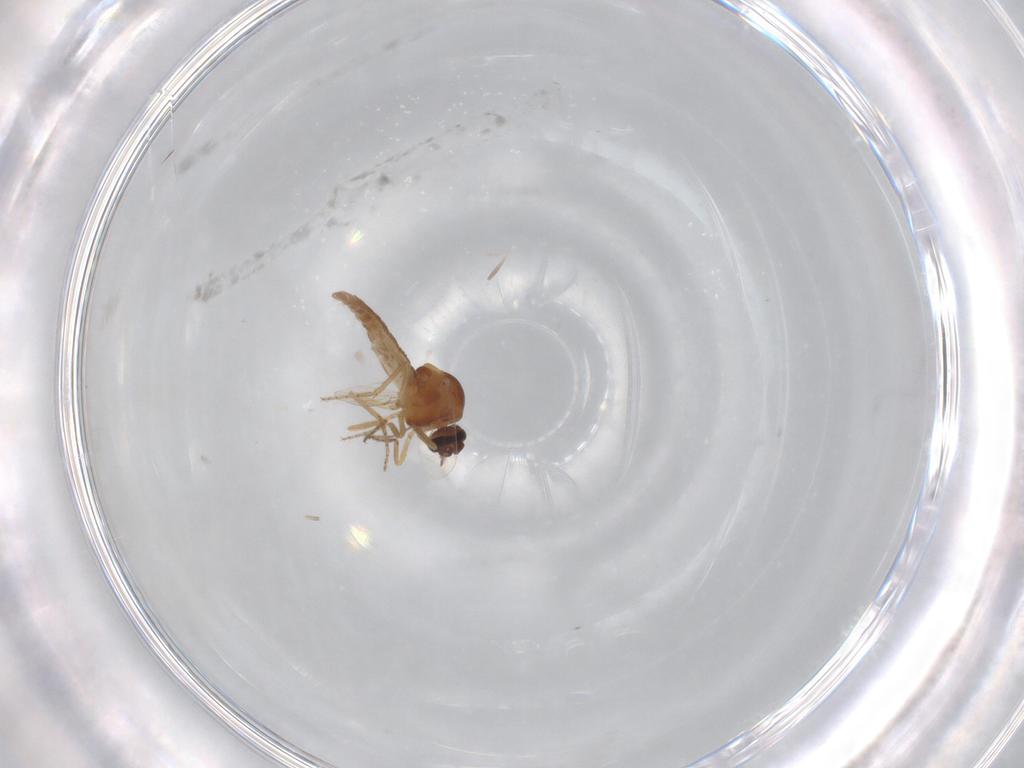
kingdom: Animalia
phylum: Arthropoda
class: Insecta
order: Diptera
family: Ceratopogonidae
